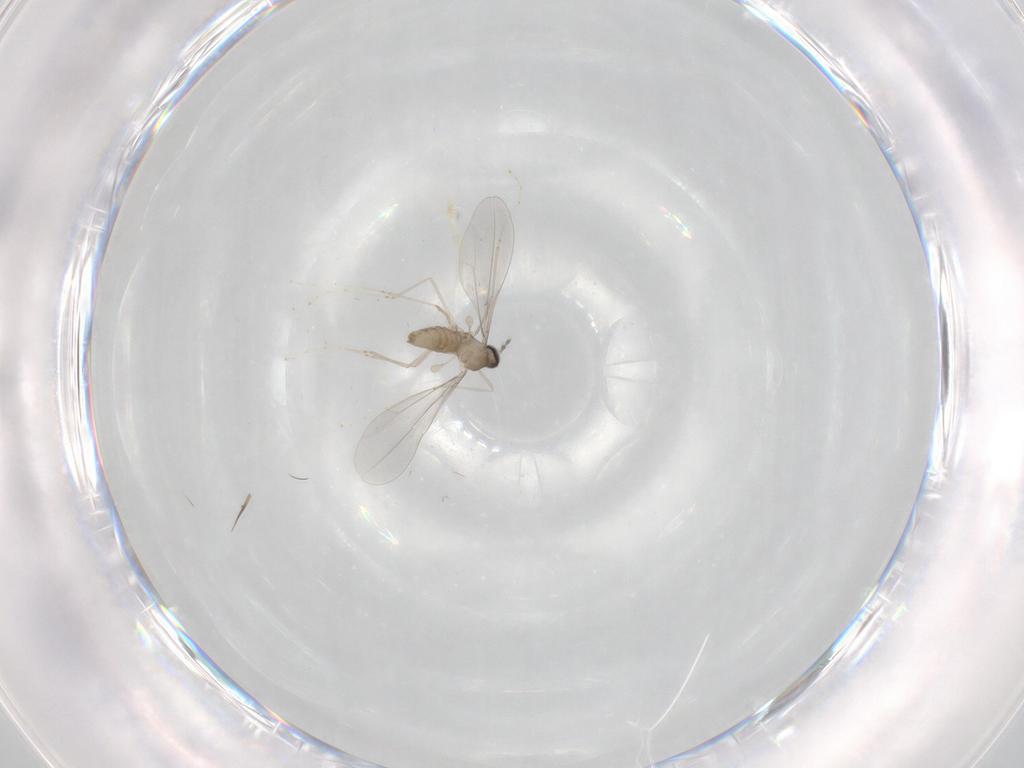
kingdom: Animalia
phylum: Arthropoda
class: Insecta
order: Diptera
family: Cecidomyiidae
